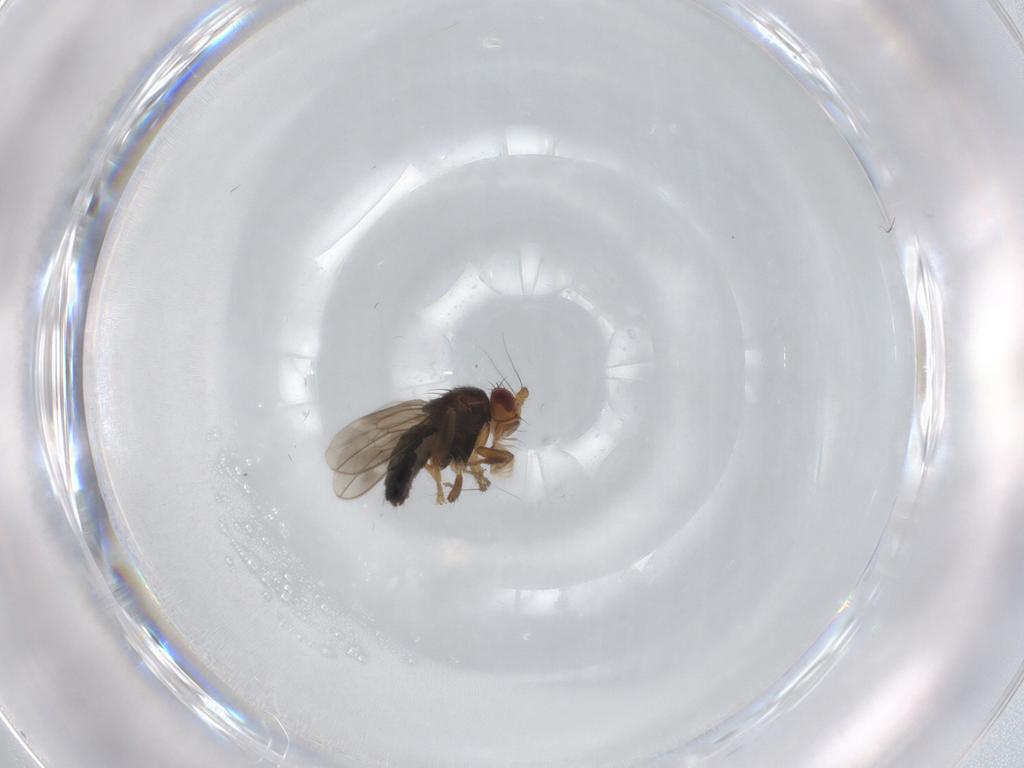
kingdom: Animalia
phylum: Arthropoda
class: Insecta
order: Diptera
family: Sphaeroceridae
